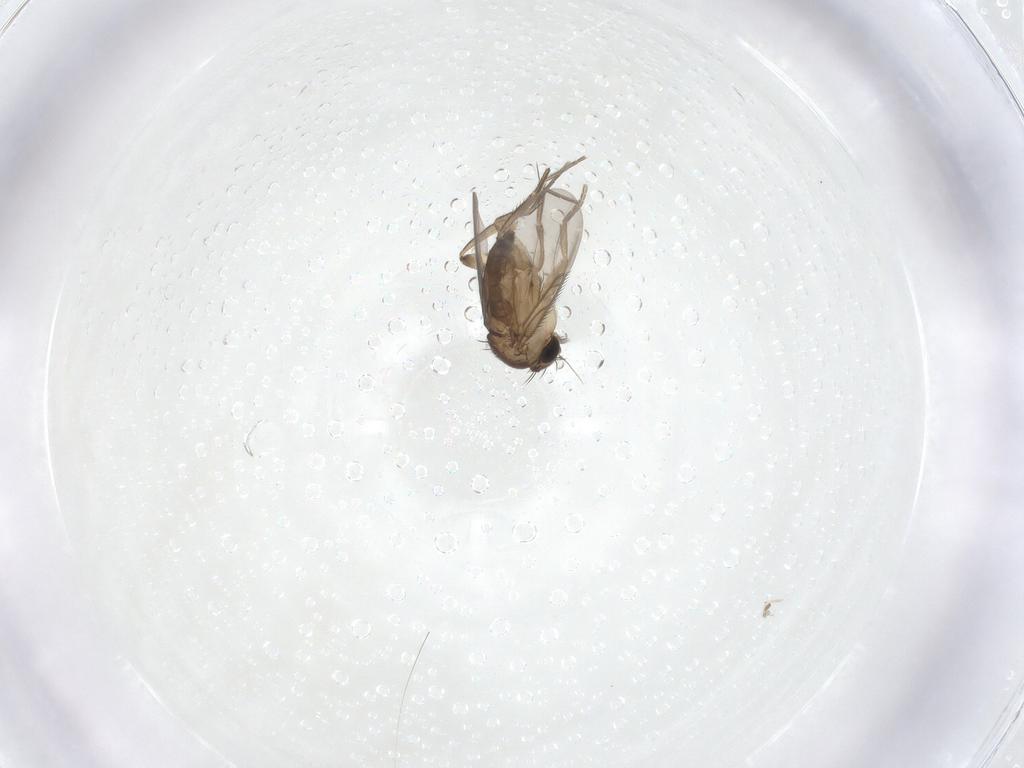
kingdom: Animalia
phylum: Arthropoda
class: Insecta
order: Diptera
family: Phoridae
